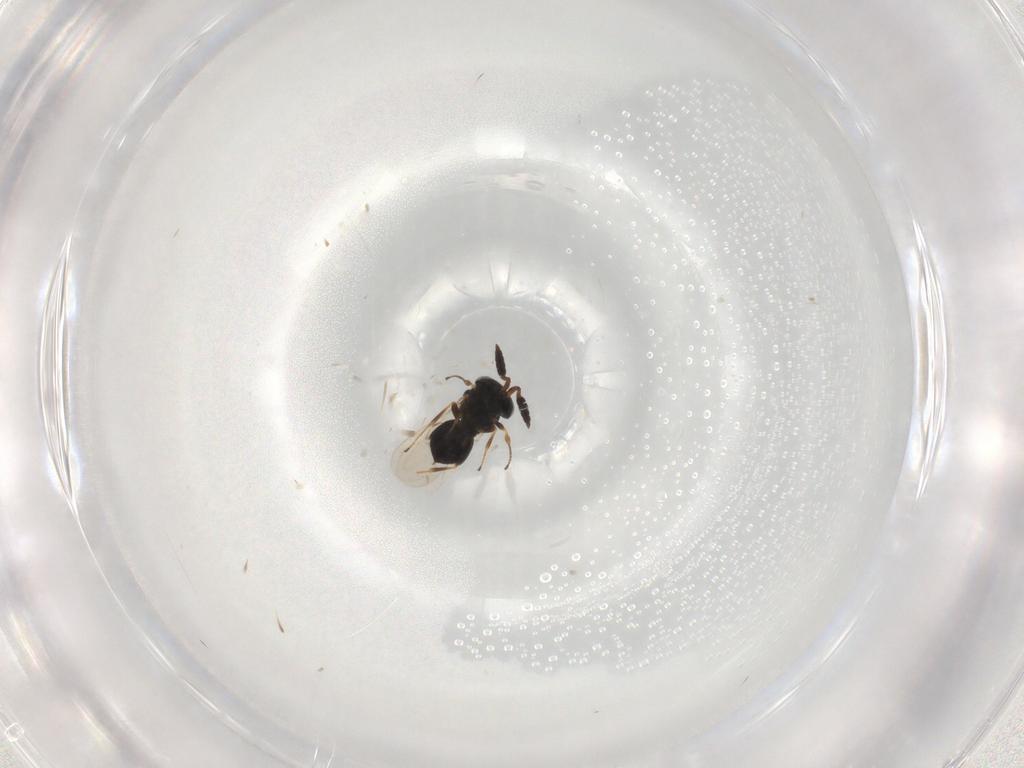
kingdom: Animalia
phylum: Arthropoda
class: Insecta
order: Hymenoptera
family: Scelionidae
